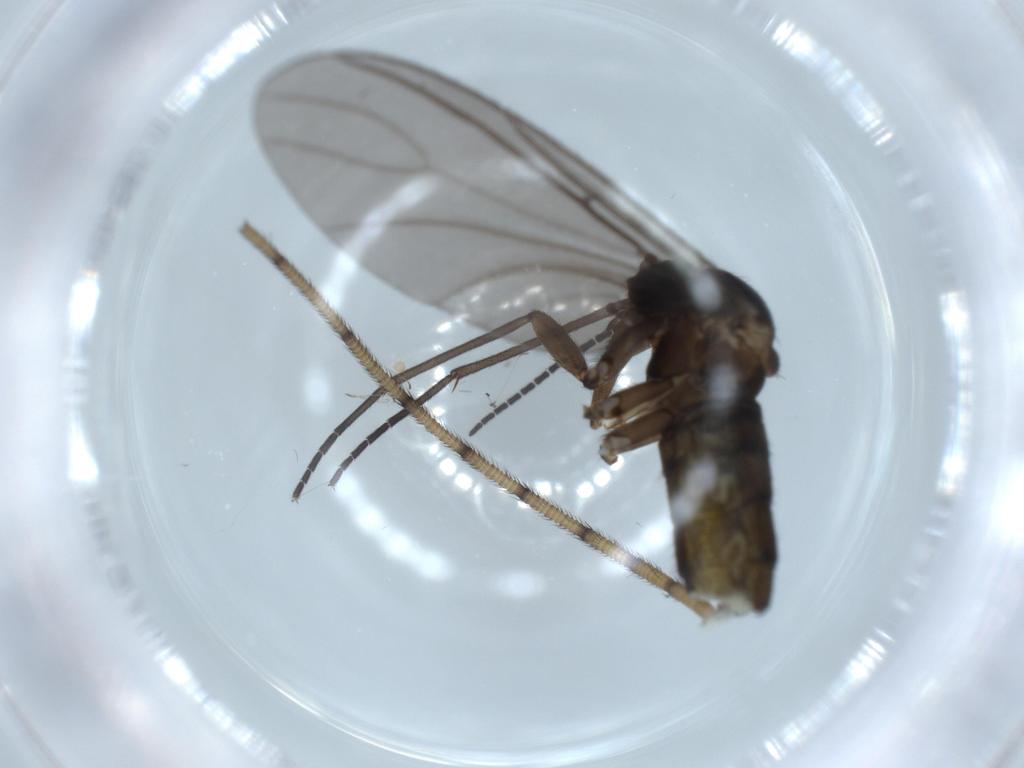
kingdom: Animalia
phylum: Arthropoda
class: Insecta
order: Diptera
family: Sciaridae
